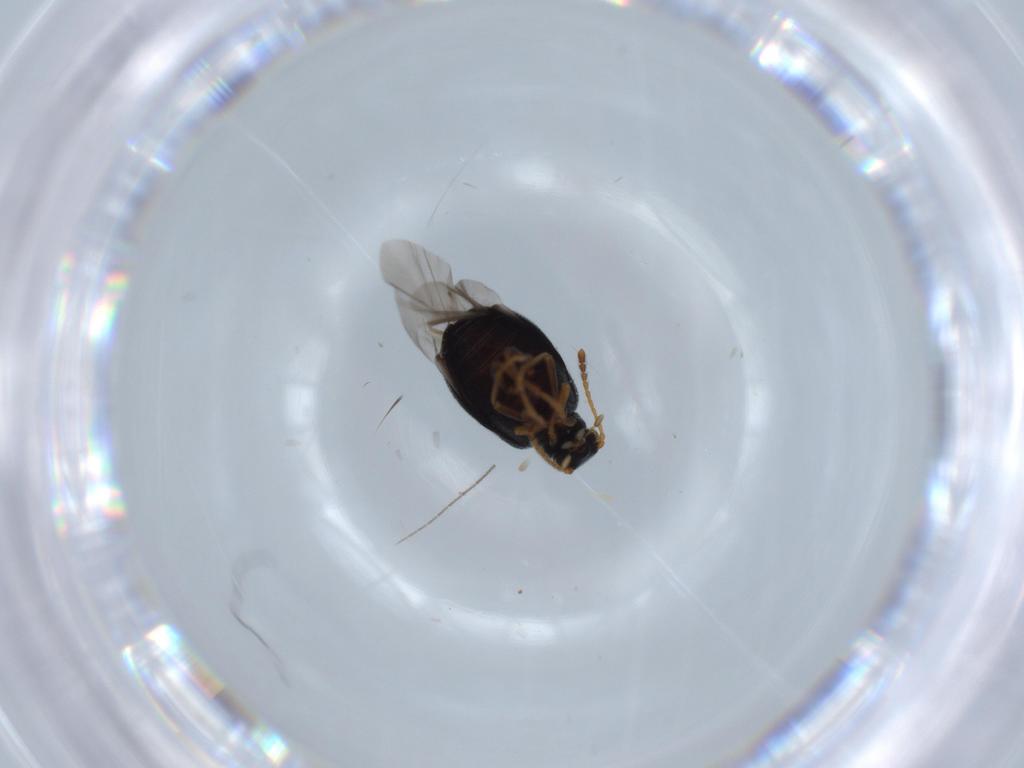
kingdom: Animalia
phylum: Arthropoda
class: Insecta
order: Coleoptera
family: Aderidae
